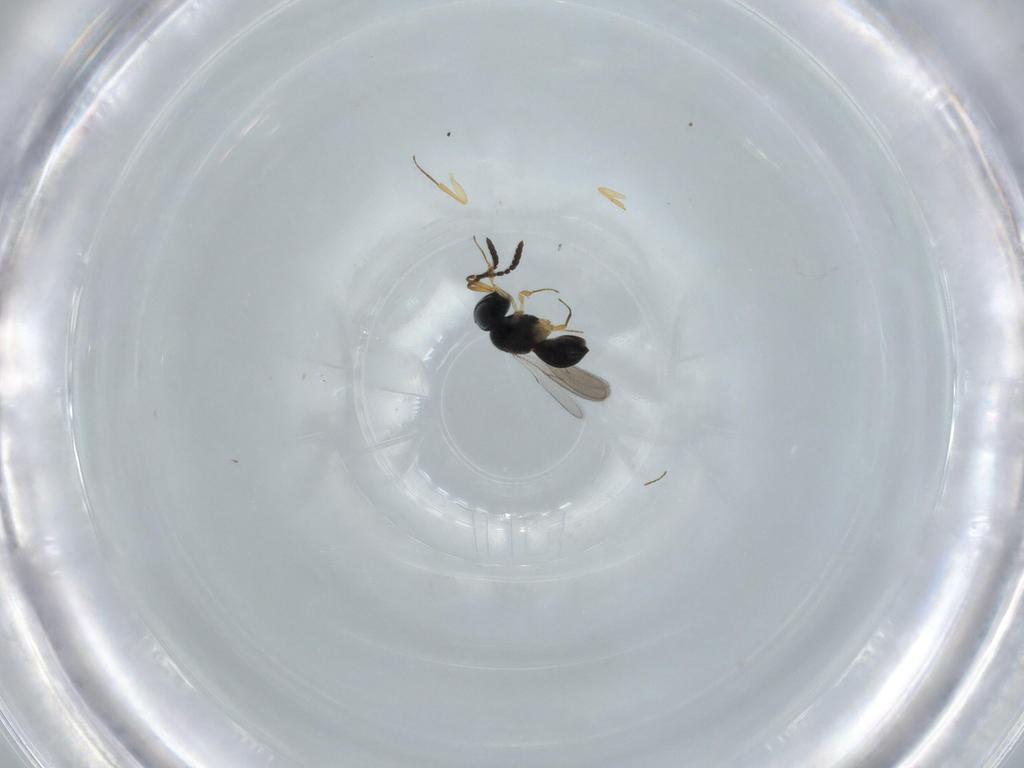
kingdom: Animalia
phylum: Arthropoda
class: Insecta
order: Hymenoptera
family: Scelionidae
